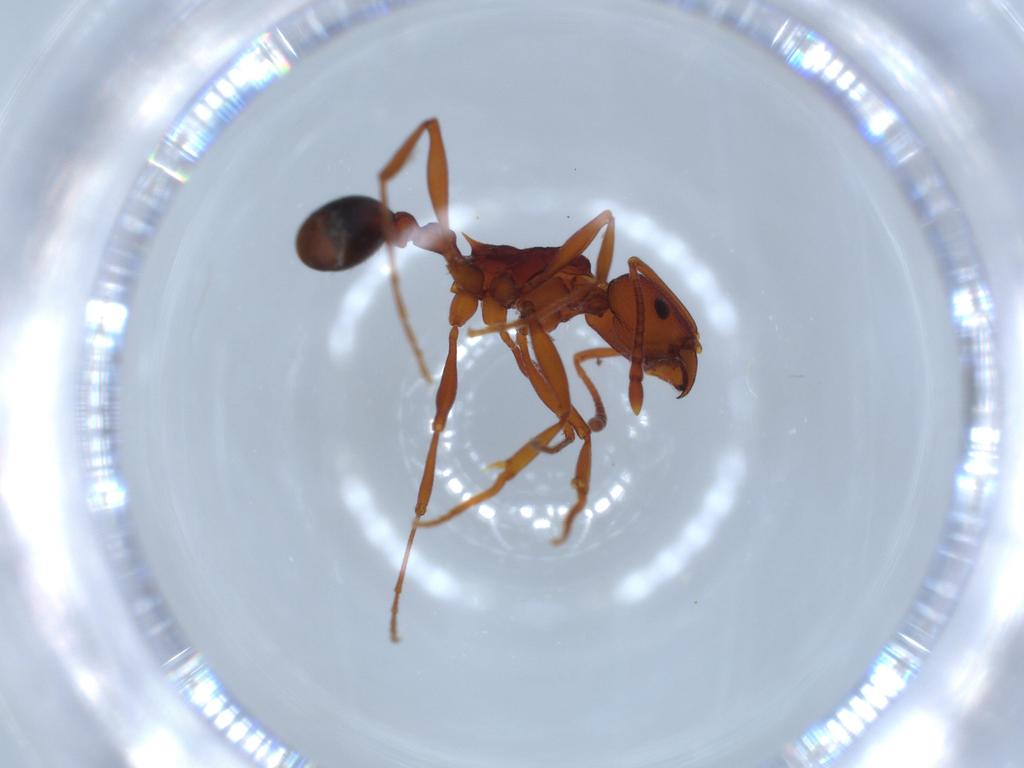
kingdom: Animalia
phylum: Arthropoda
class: Insecta
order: Hymenoptera
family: Formicidae
